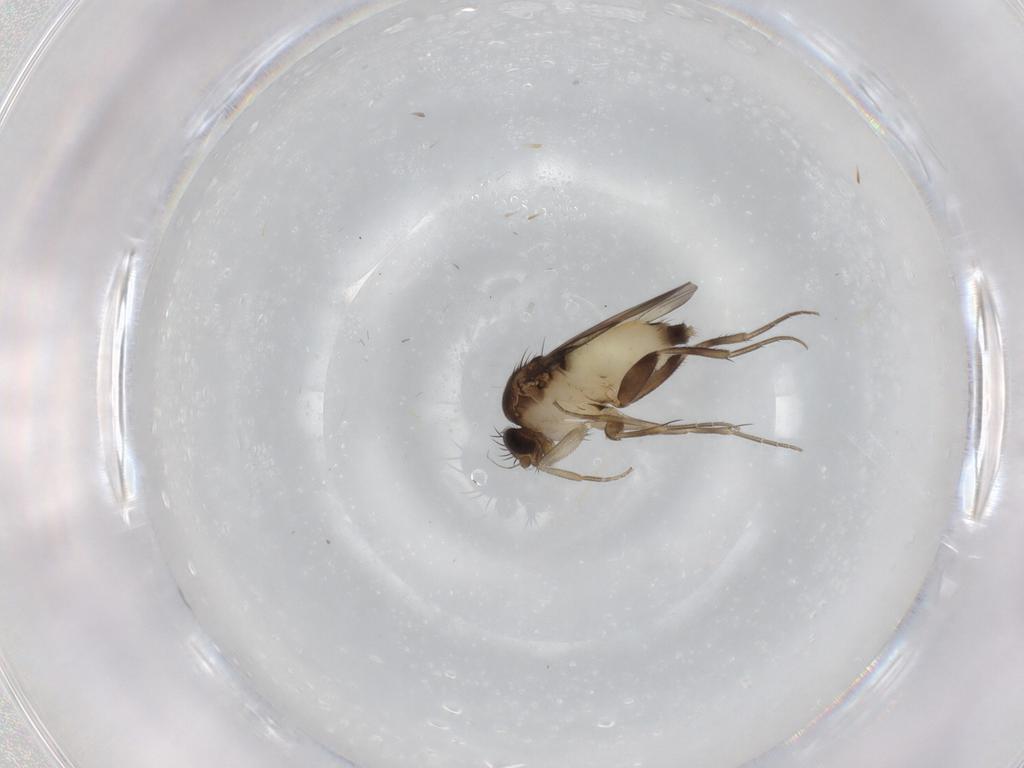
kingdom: Animalia
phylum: Arthropoda
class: Insecta
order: Diptera
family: Phoridae
